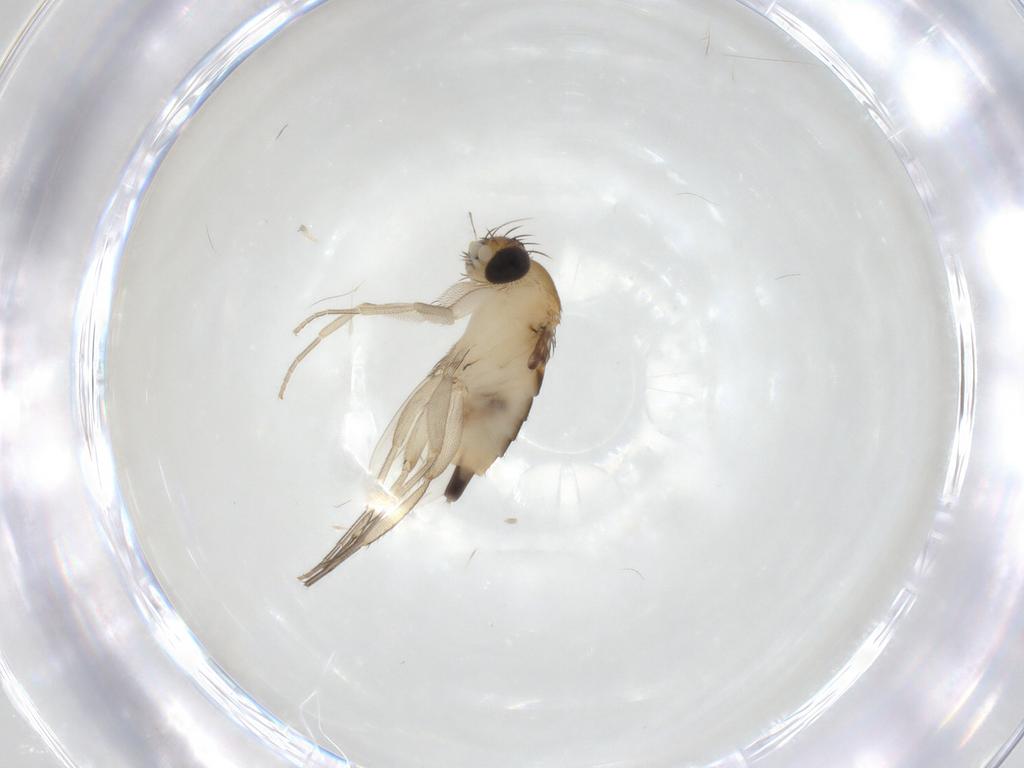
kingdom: Animalia
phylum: Arthropoda
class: Insecta
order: Diptera
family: Phoridae
